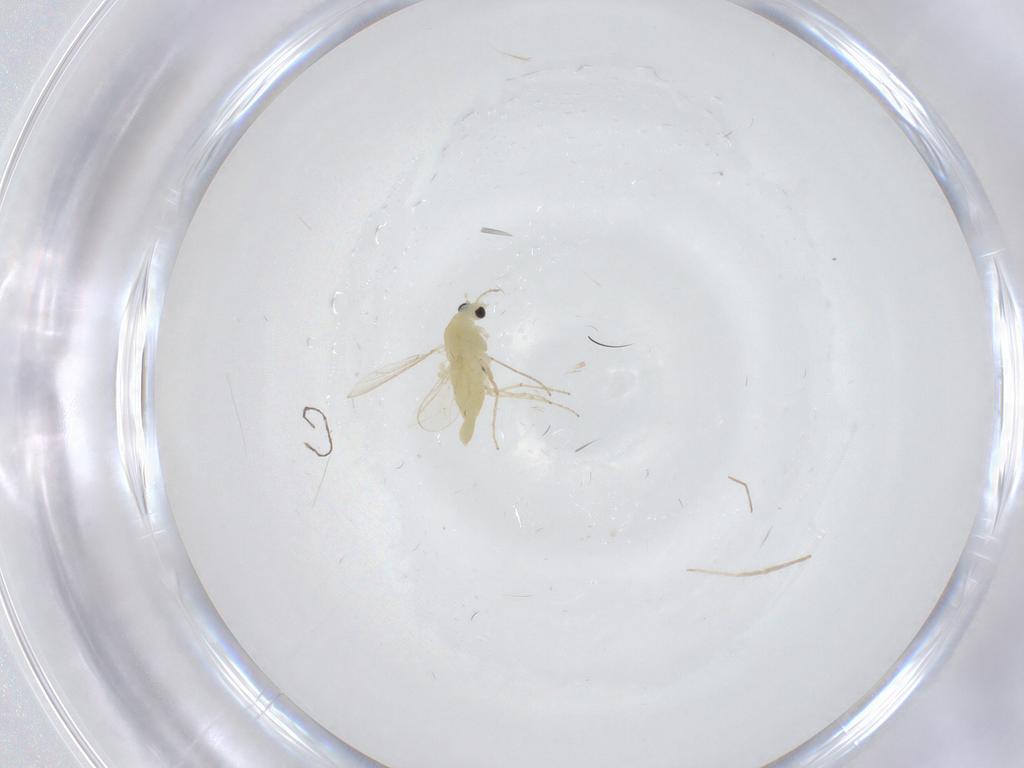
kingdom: Animalia
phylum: Arthropoda
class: Insecta
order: Diptera
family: Chironomidae
